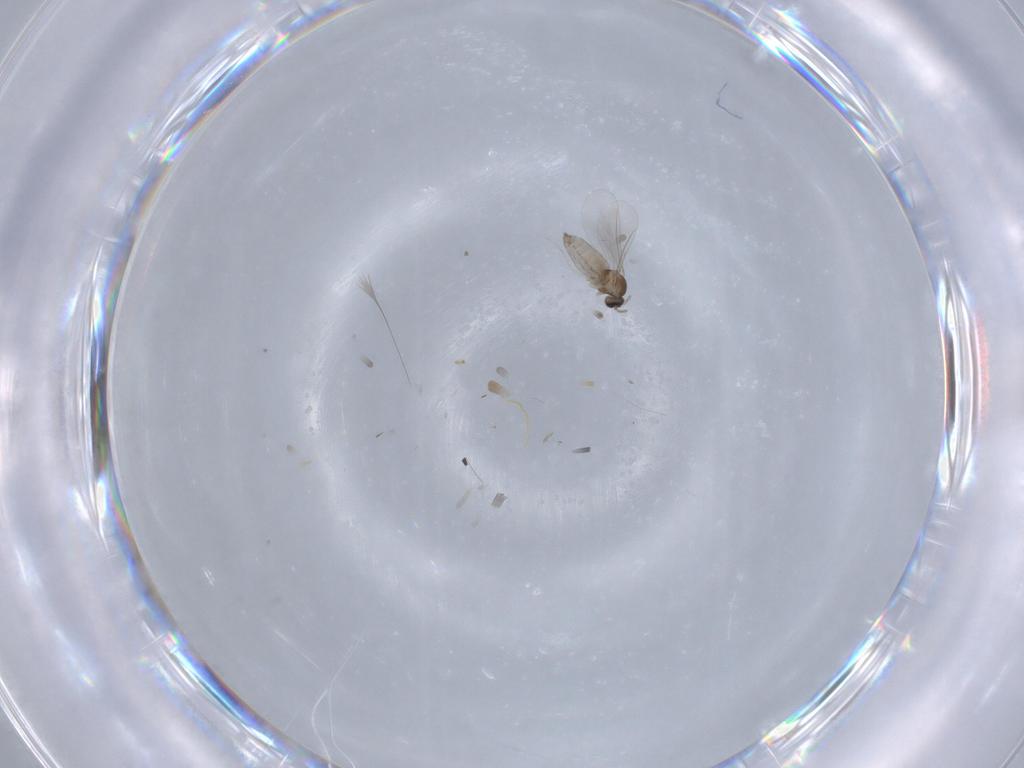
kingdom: Animalia
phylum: Arthropoda
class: Insecta
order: Diptera
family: Cecidomyiidae
